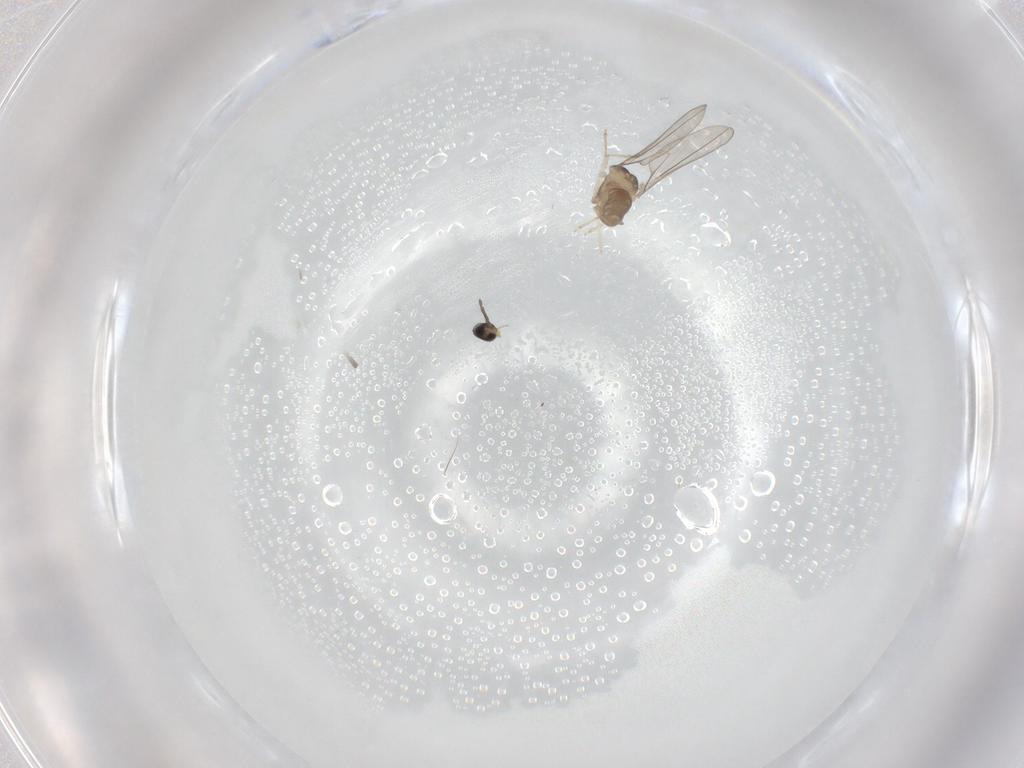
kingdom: Animalia
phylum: Arthropoda
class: Insecta
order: Diptera
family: Cecidomyiidae
